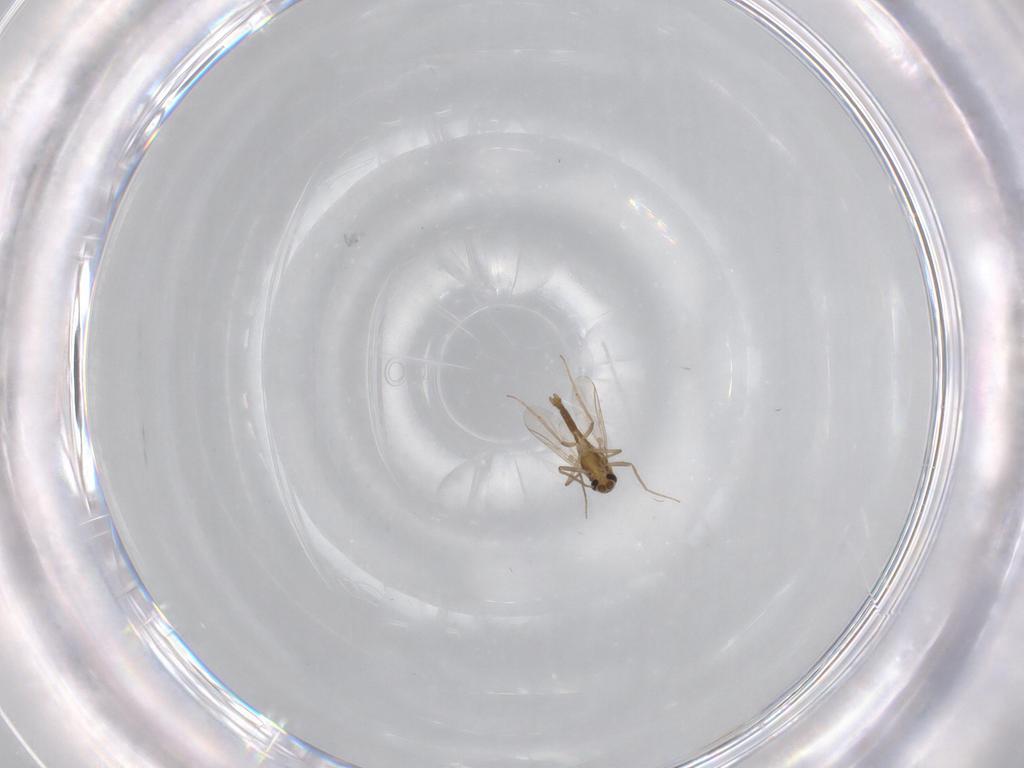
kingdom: Animalia
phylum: Arthropoda
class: Insecta
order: Diptera
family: Chironomidae
